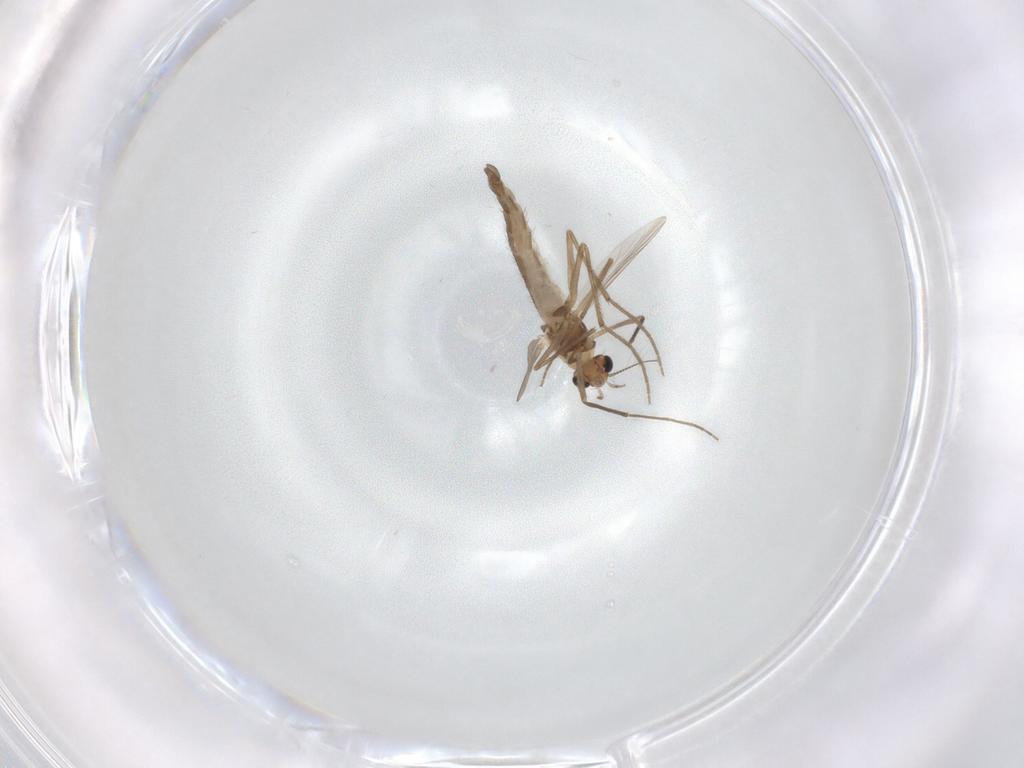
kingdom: Animalia
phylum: Arthropoda
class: Insecta
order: Diptera
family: Chironomidae
